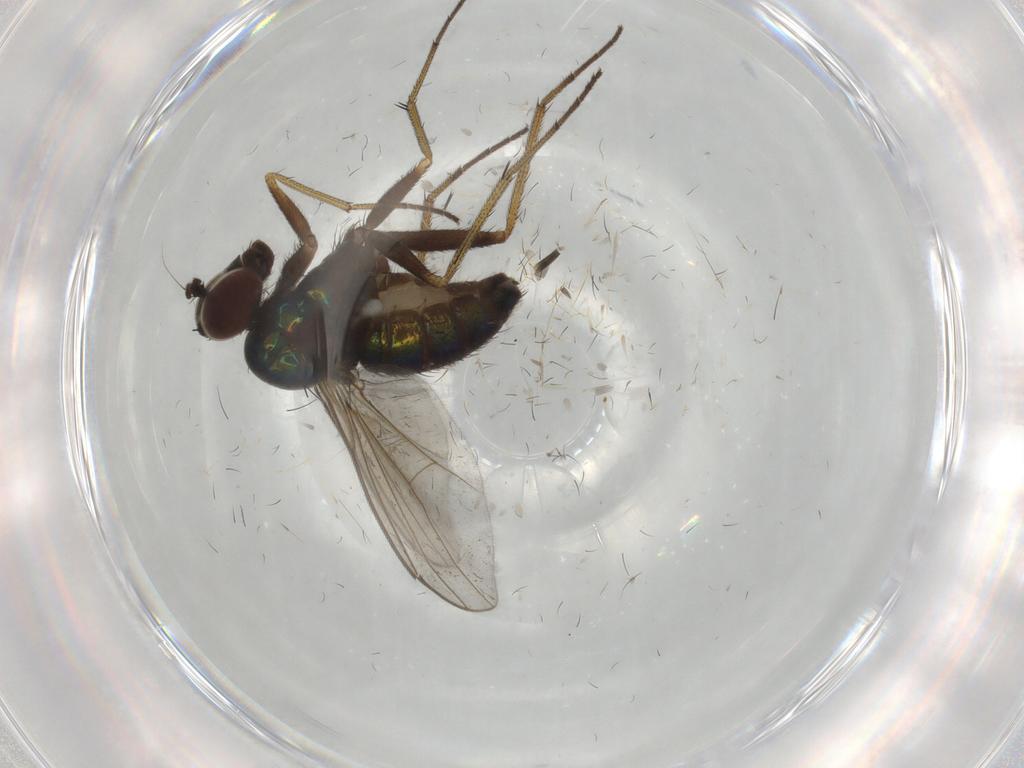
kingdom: Animalia
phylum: Arthropoda
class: Insecta
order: Diptera
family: Dolichopodidae
